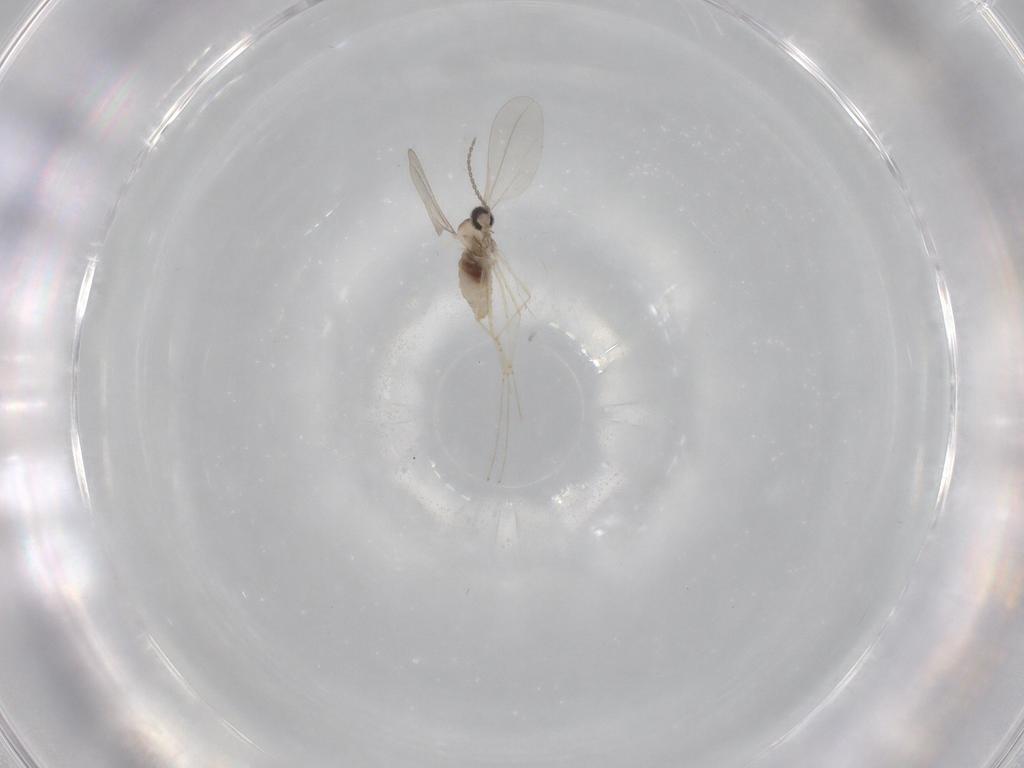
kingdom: Animalia
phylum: Arthropoda
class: Insecta
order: Diptera
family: Cecidomyiidae
